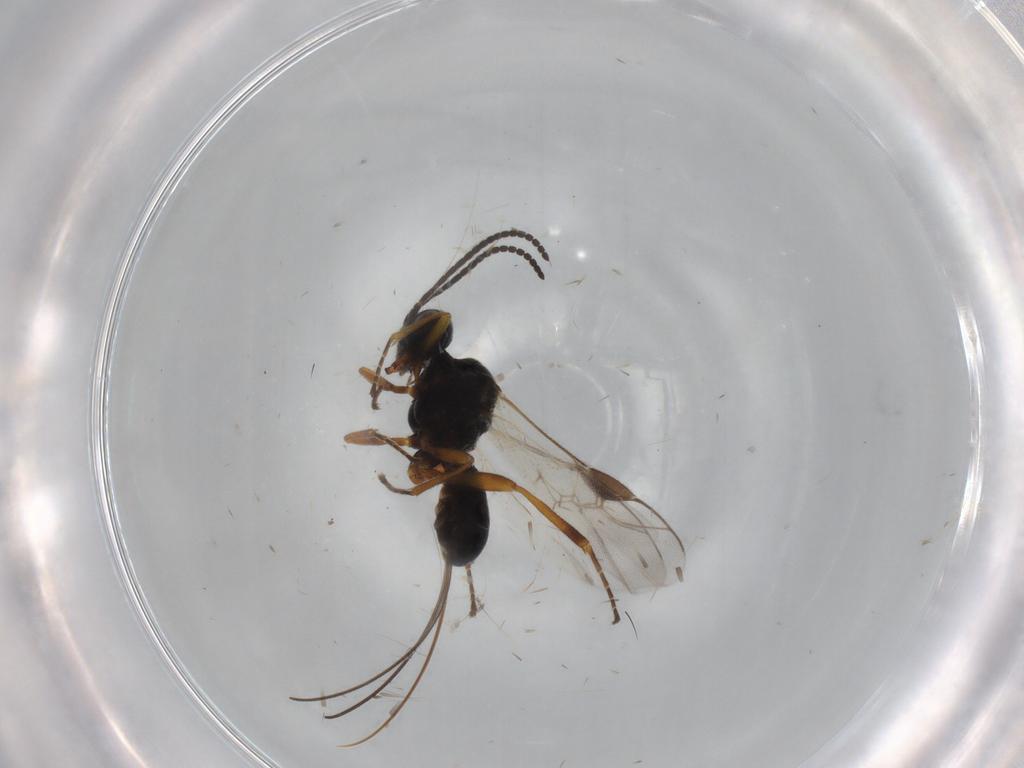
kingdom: Animalia
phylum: Arthropoda
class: Insecta
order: Hymenoptera
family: Braconidae
